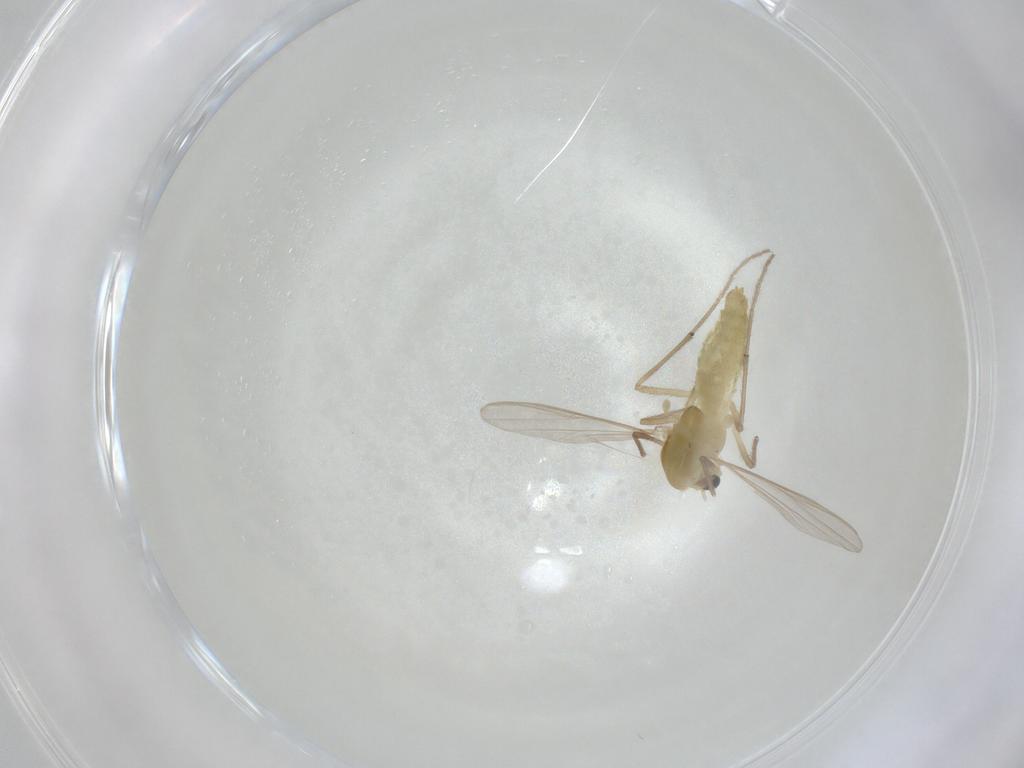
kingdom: Animalia
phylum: Arthropoda
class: Insecta
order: Diptera
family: Chironomidae
